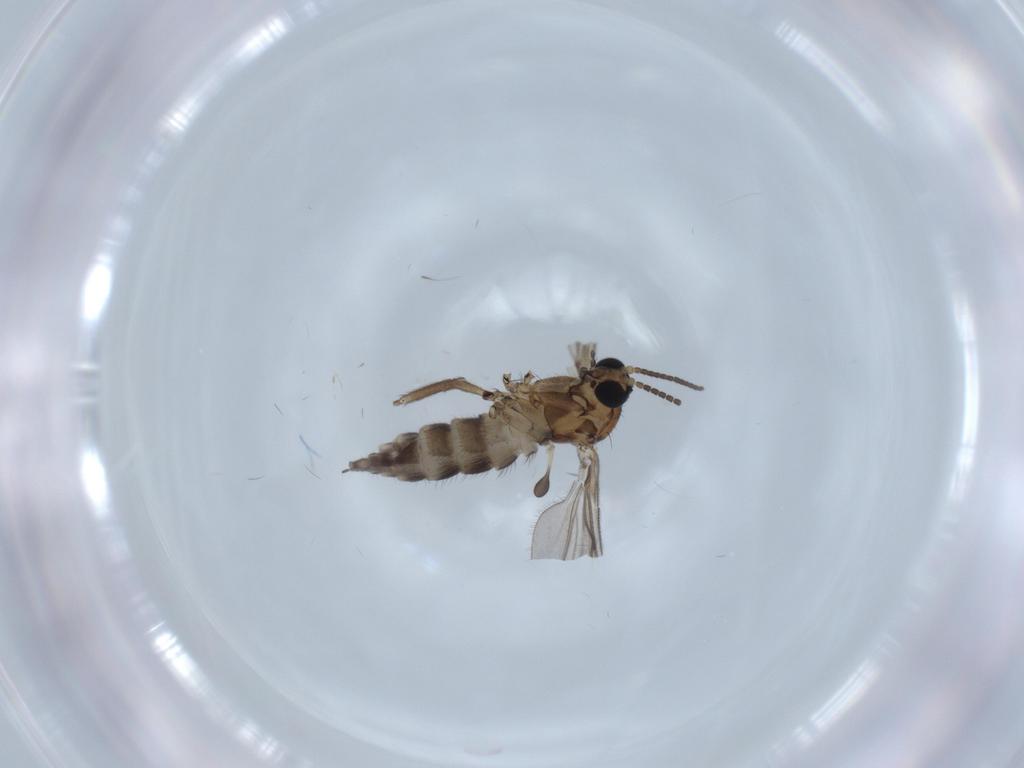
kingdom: Animalia
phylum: Arthropoda
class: Insecta
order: Diptera
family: Sciaridae
